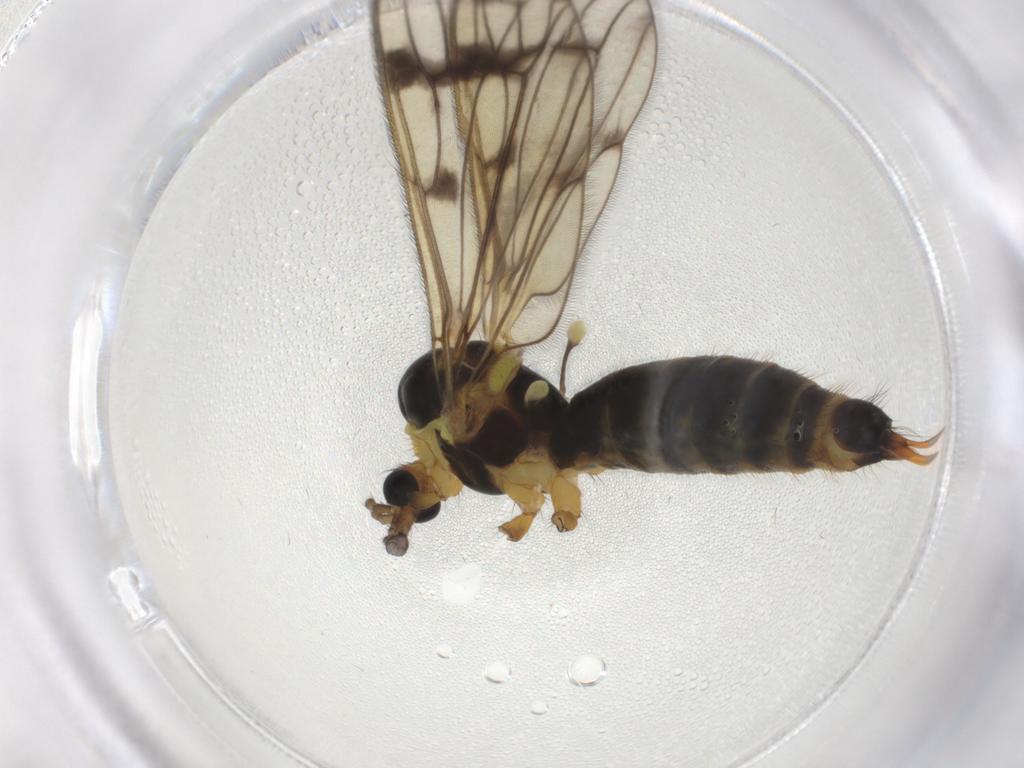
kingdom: Animalia
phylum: Arthropoda
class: Insecta
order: Diptera
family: Limoniidae
